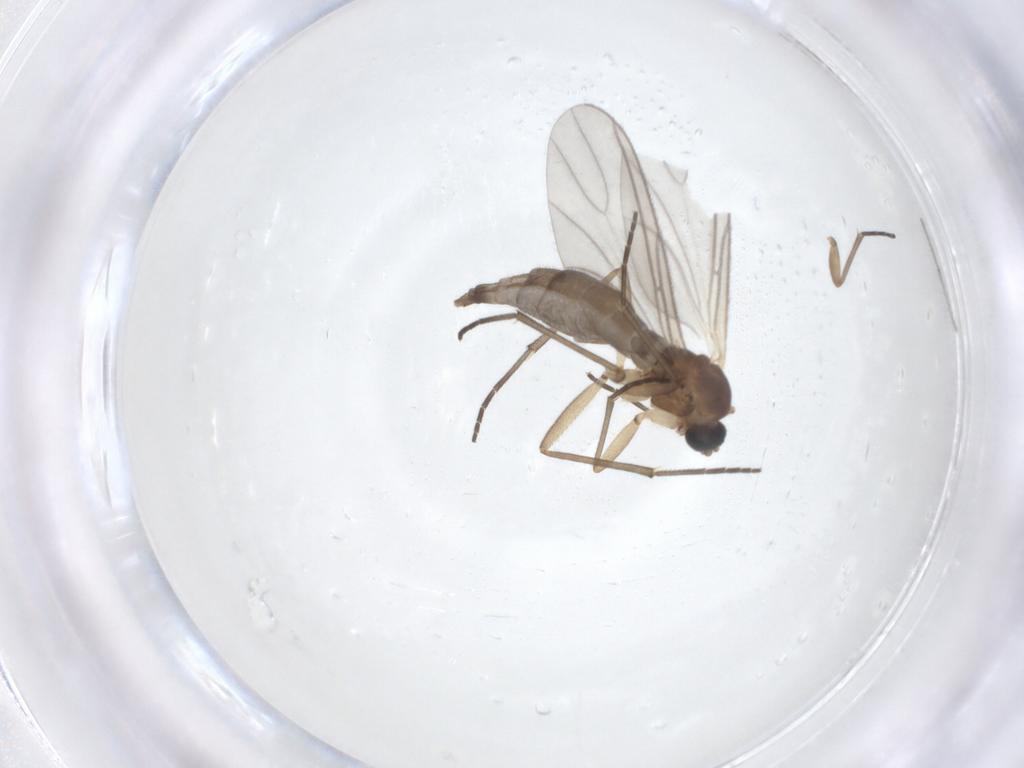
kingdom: Animalia
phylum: Arthropoda
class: Insecta
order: Diptera
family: Sciaridae
